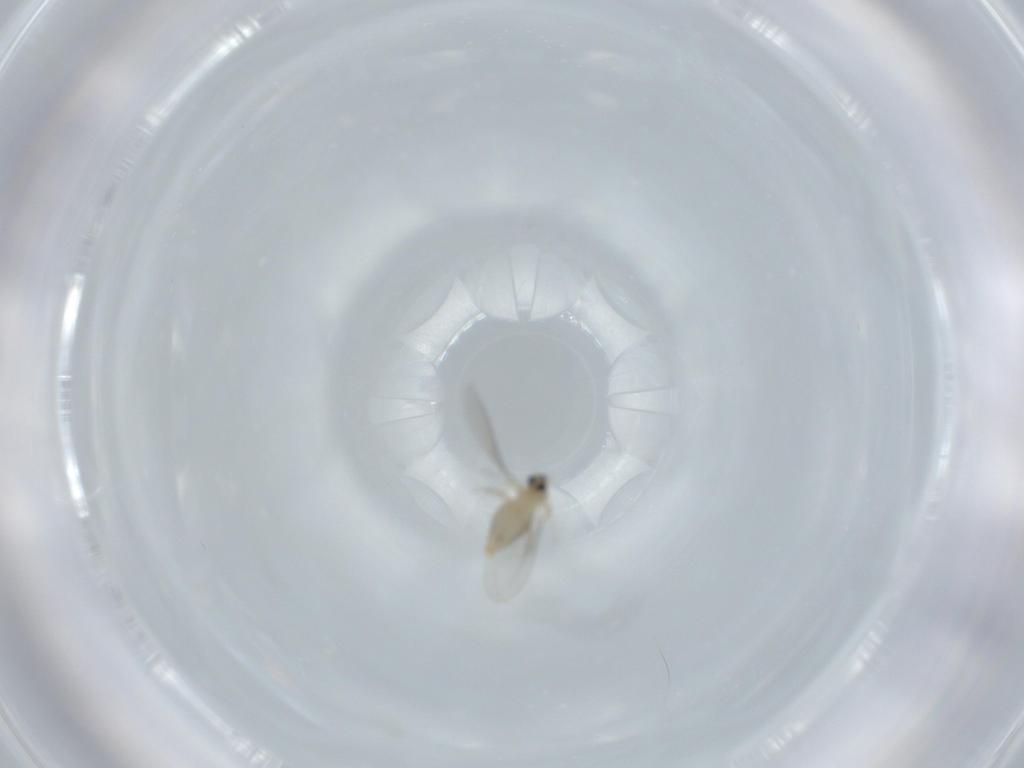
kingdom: Animalia
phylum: Arthropoda
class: Insecta
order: Diptera
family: Cecidomyiidae
